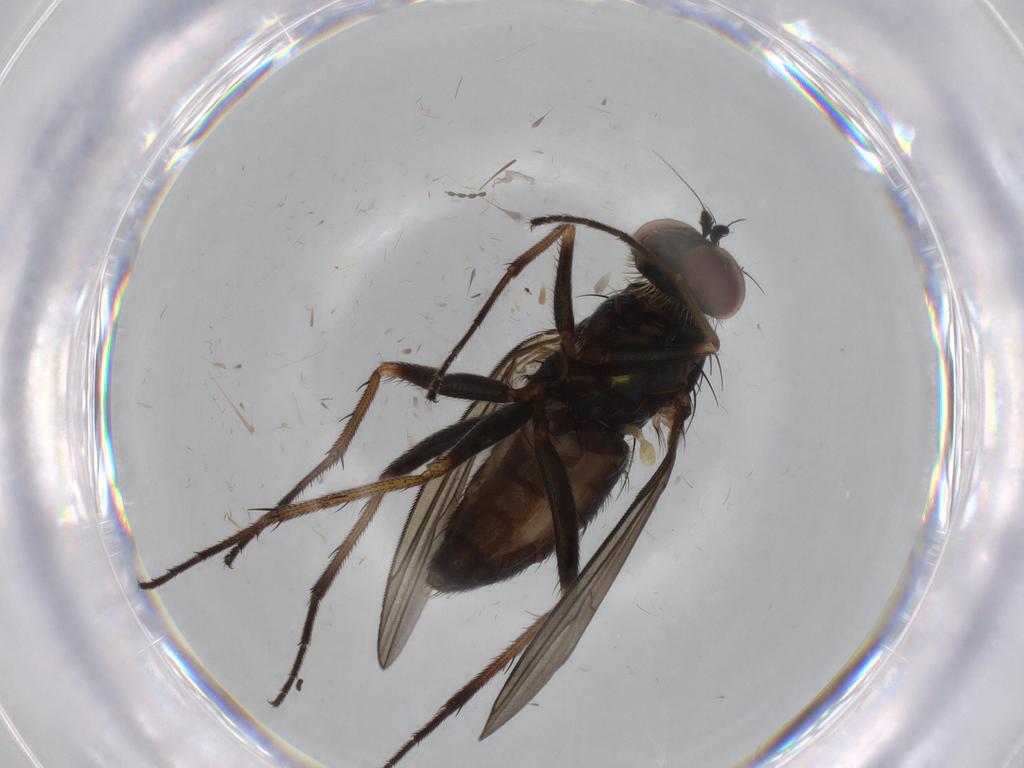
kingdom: Animalia
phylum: Arthropoda
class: Insecta
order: Diptera
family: Dolichopodidae
